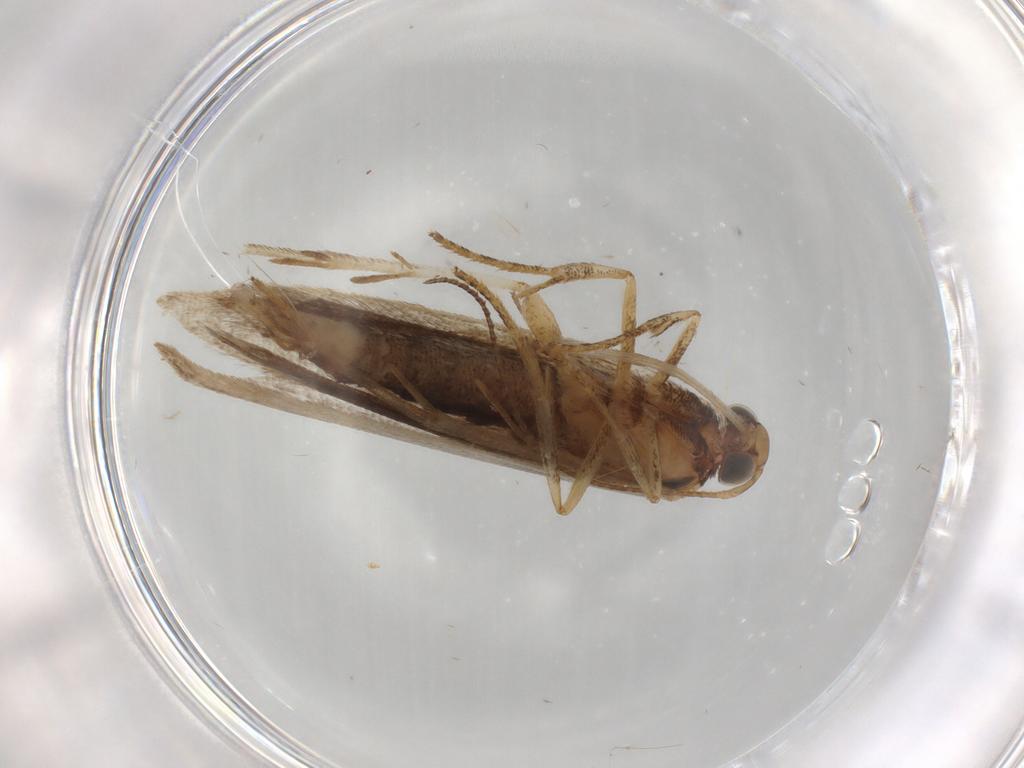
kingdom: Animalia
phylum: Arthropoda
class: Insecta
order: Lepidoptera
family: Gelechiidae
